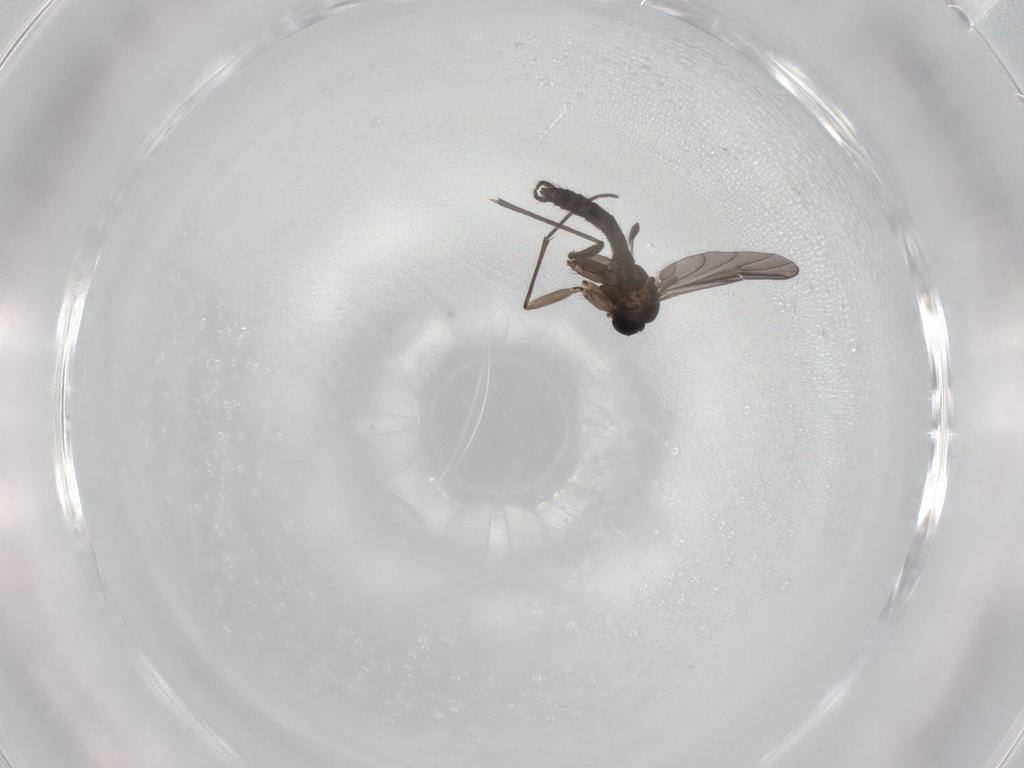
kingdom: Animalia
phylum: Arthropoda
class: Insecta
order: Diptera
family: Sciaridae
